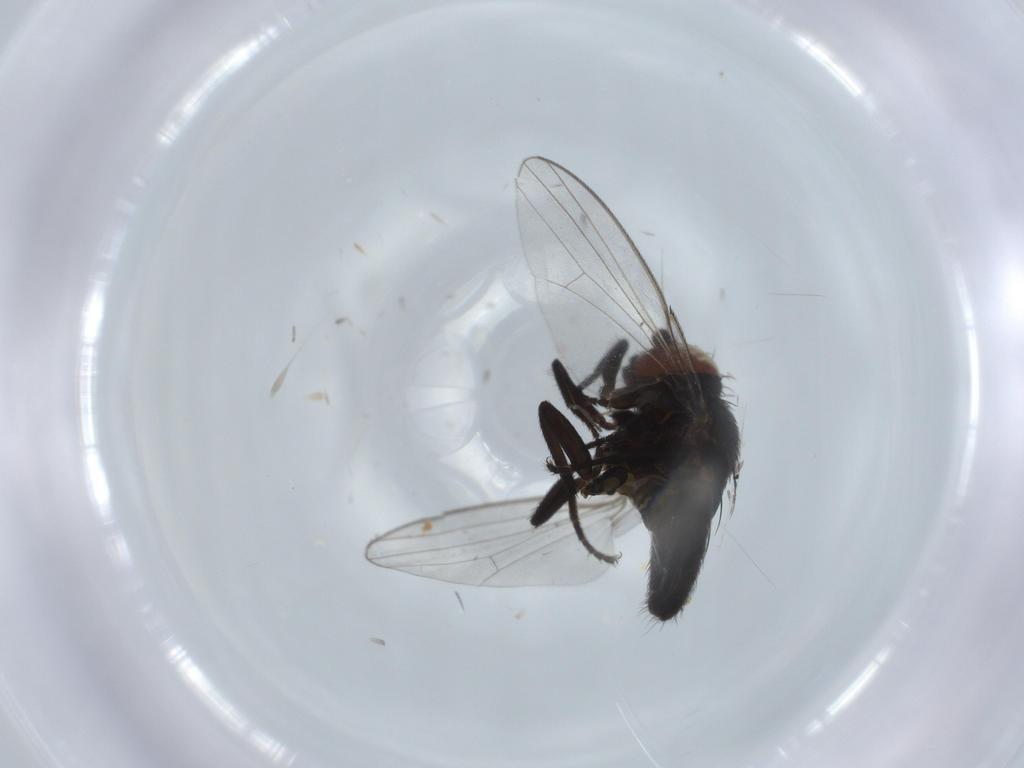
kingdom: Animalia
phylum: Arthropoda
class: Insecta
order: Diptera
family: Milichiidae
